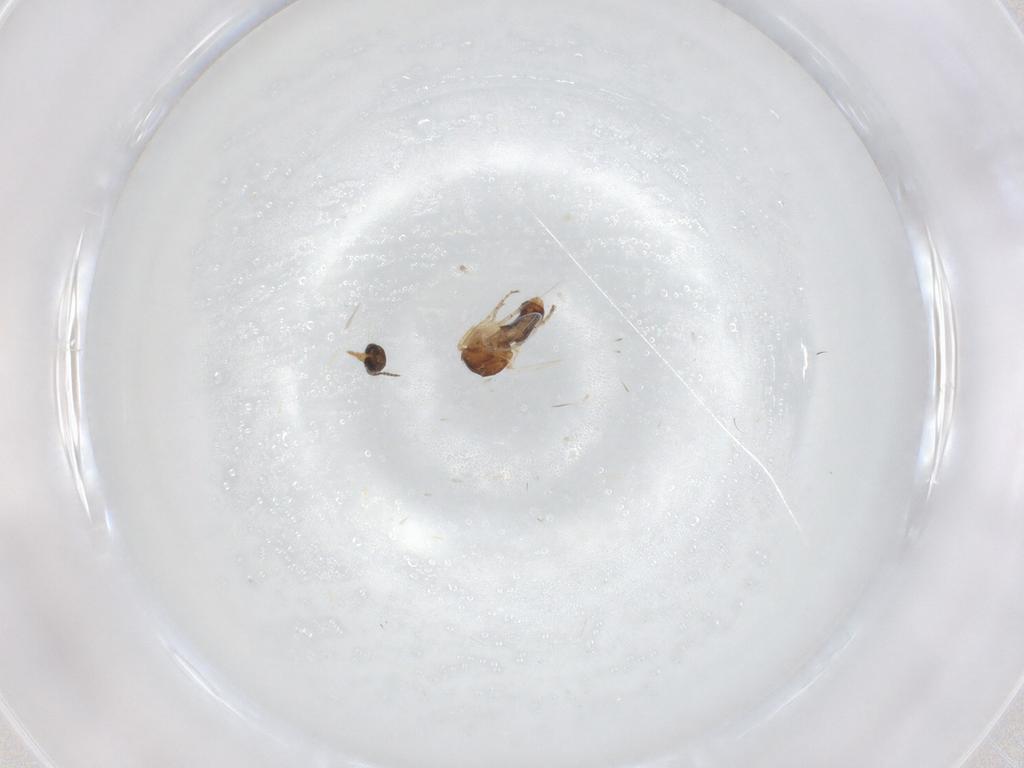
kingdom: Animalia
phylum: Arthropoda
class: Insecta
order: Diptera
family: Ceratopogonidae
